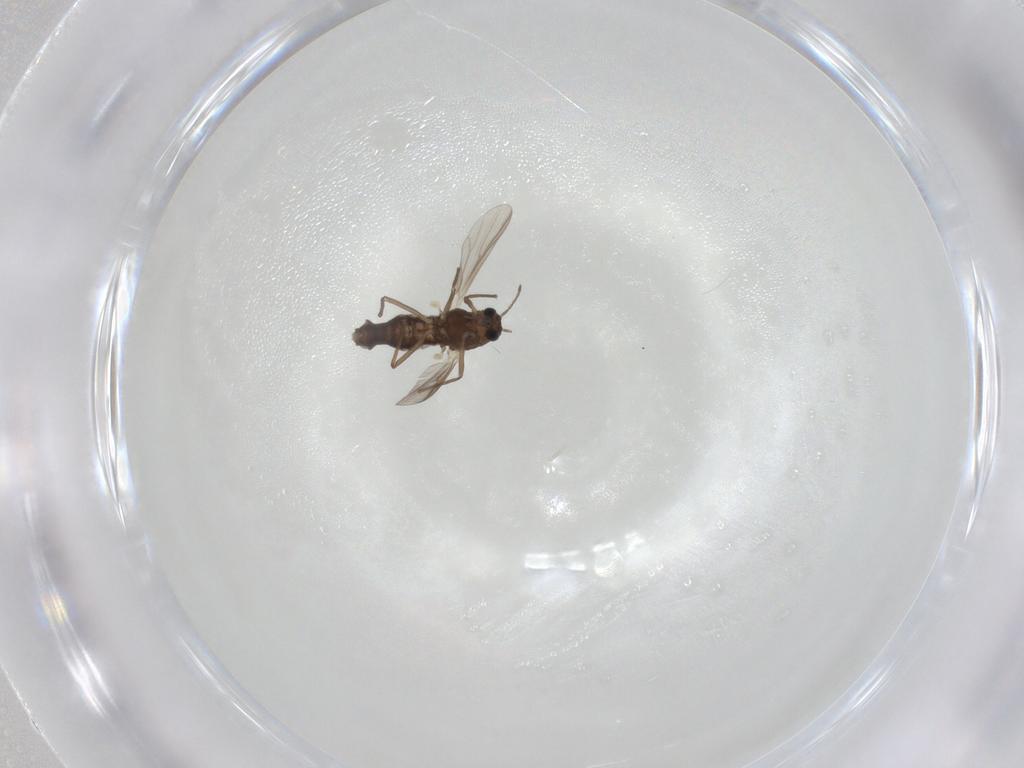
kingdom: Animalia
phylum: Arthropoda
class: Insecta
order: Diptera
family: Chironomidae
